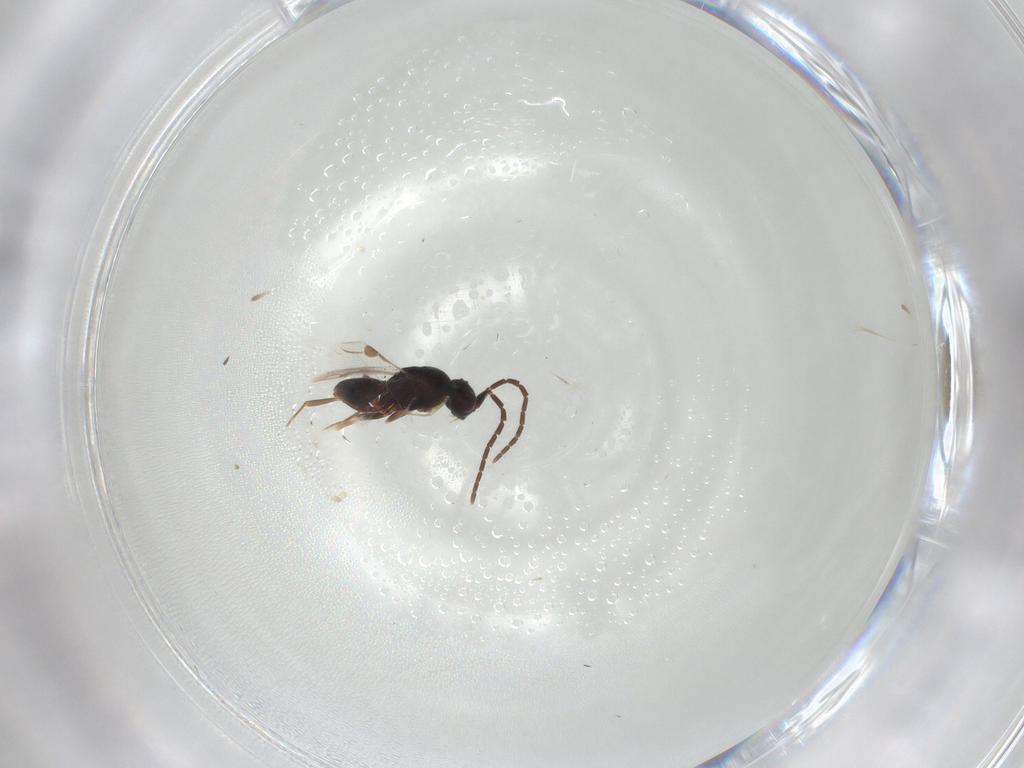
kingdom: Animalia
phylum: Arthropoda
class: Insecta
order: Hymenoptera
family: Megaspilidae
